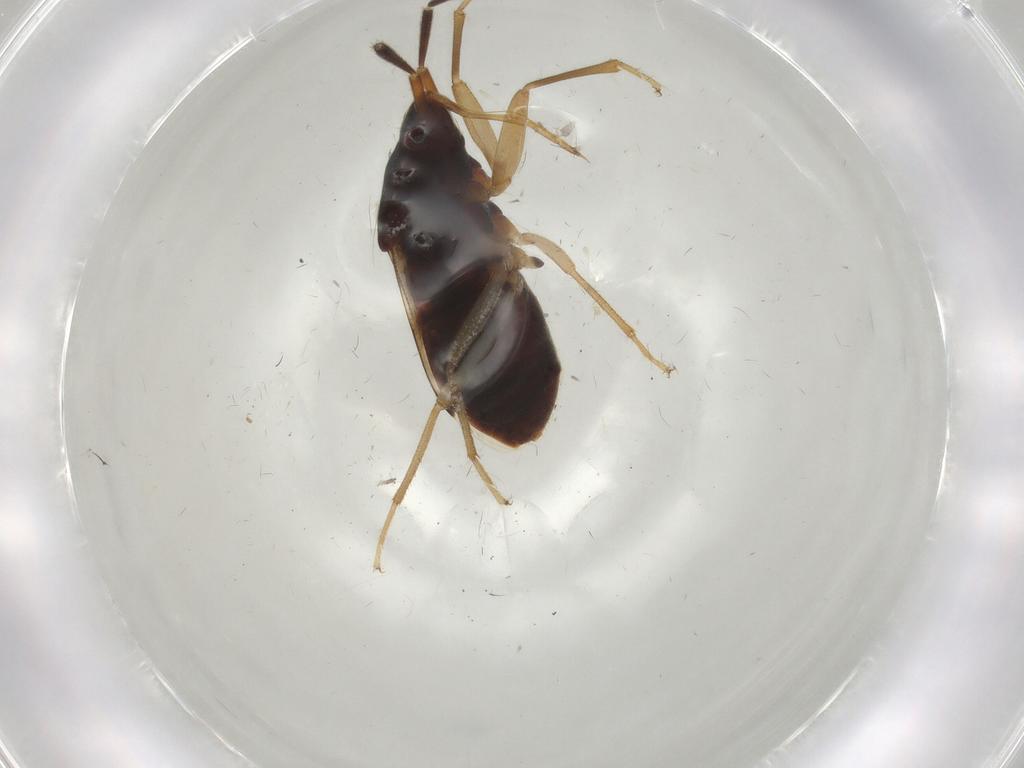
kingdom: Animalia
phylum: Arthropoda
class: Insecta
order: Hemiptera
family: Rhyparochromidae
